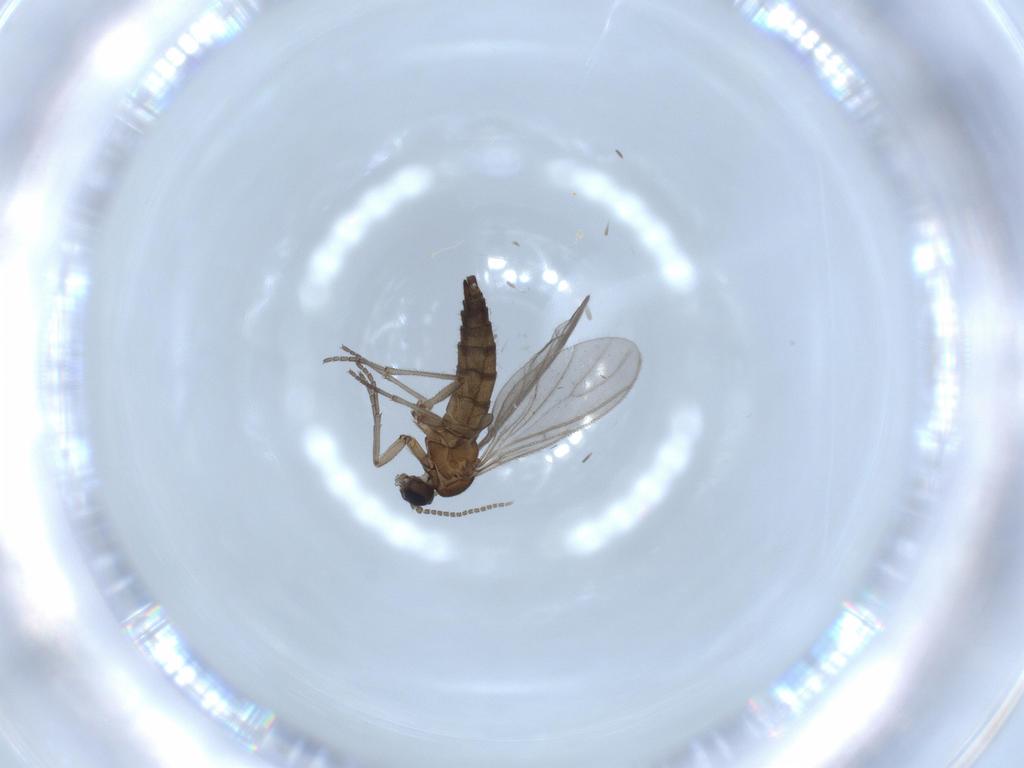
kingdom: Animalia
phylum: Arthropoda
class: Insecta
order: Diptera
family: Sciaridae
